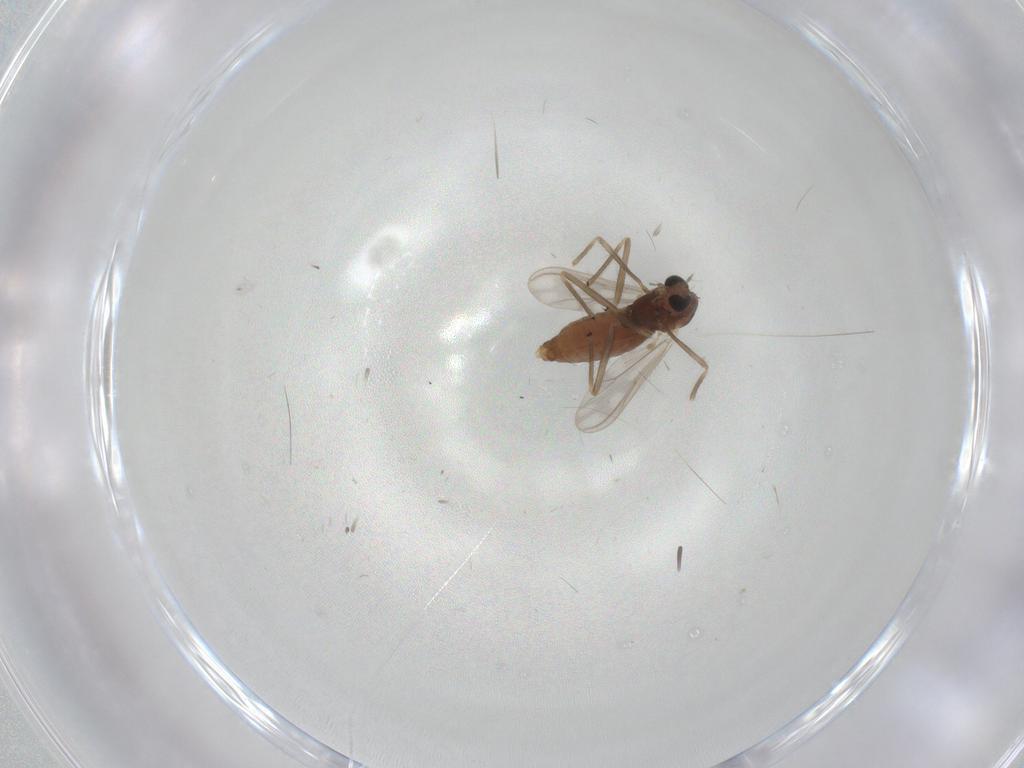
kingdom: Animalia
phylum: Arthropoda
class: Insecta
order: Diptera
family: Chironomidae
